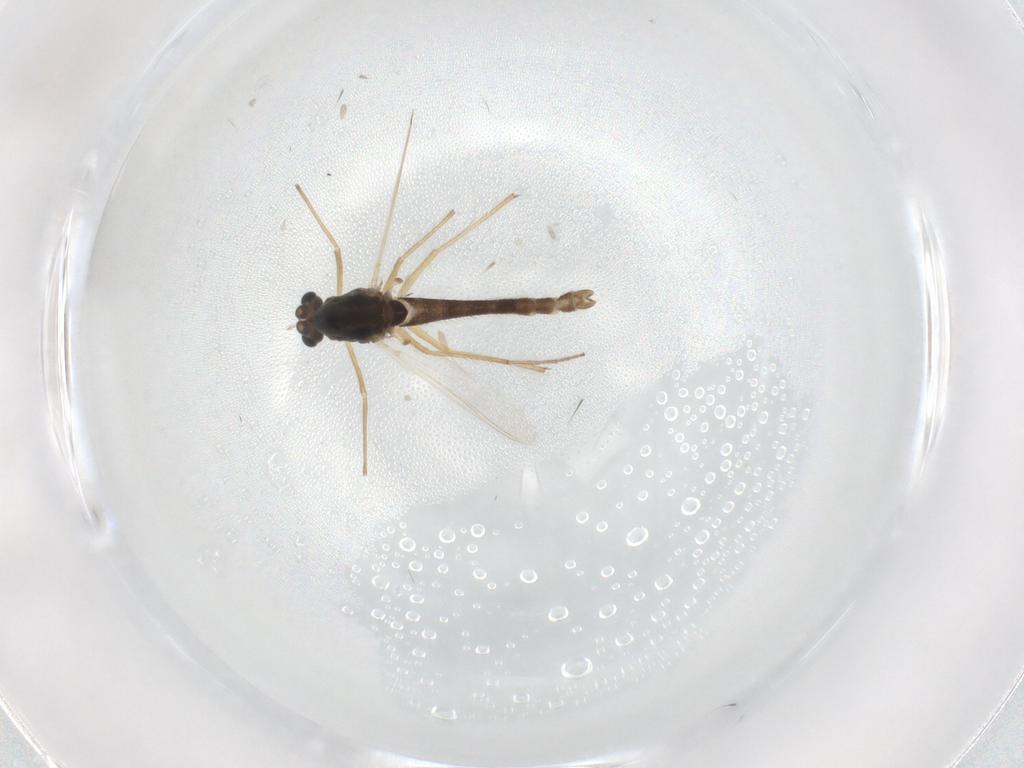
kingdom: Animalia
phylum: Arthropoda
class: Insecta
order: Diptera
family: Chironomidae
